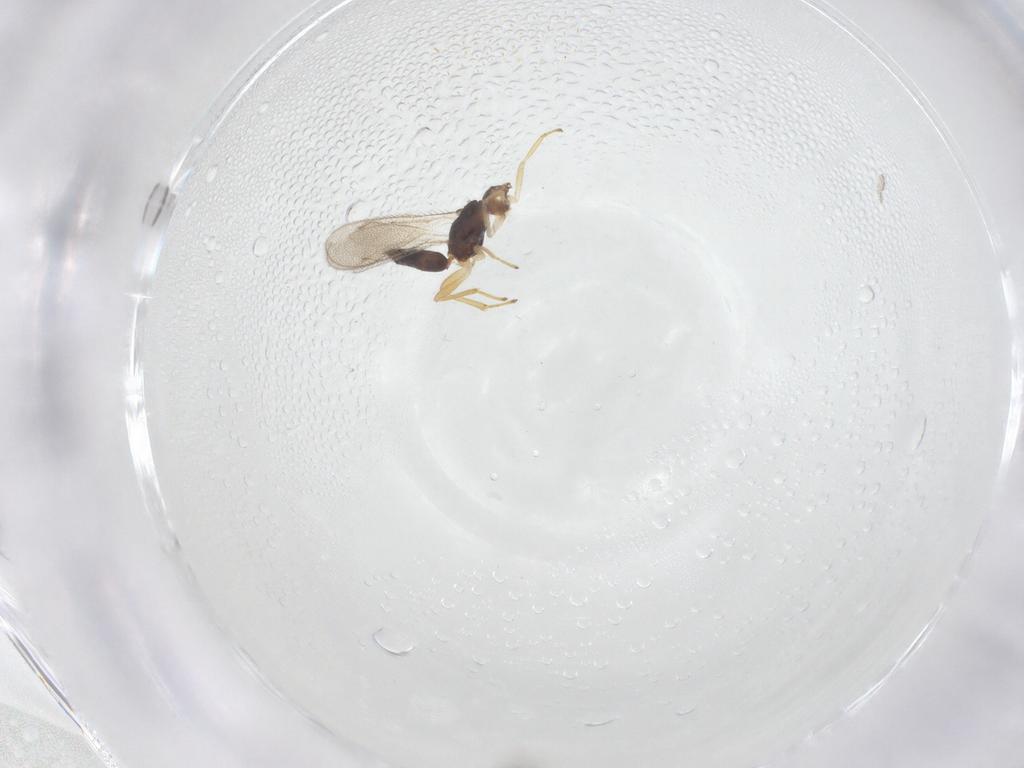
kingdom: Animalia
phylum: Arthropoda
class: Insecta
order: Hymenoptera
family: Eulophidae
